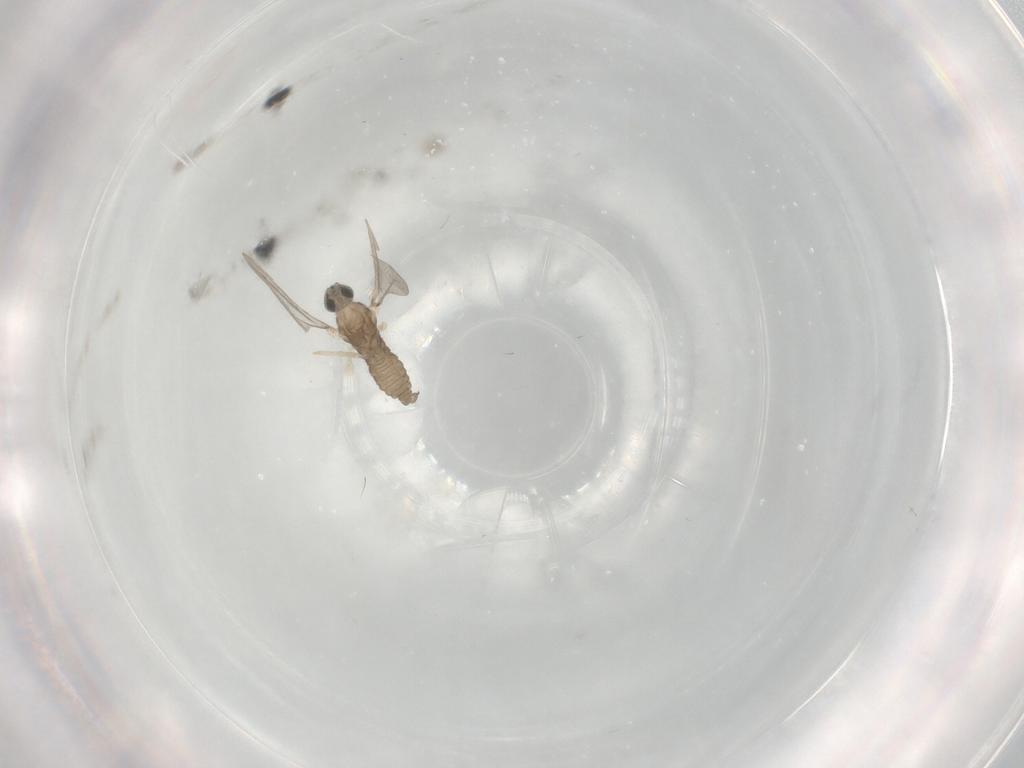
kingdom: Animalia
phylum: Arthropoda
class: Insecta
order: Diptera
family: Cecidomyiidae
